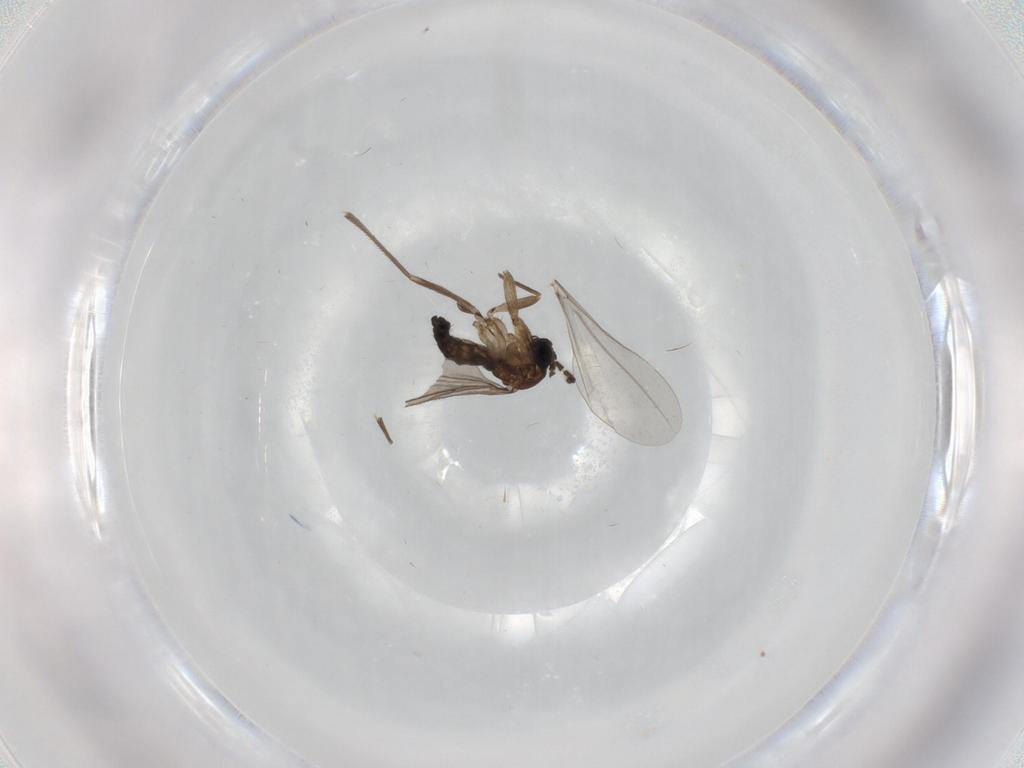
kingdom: Animalia
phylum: Arthropoda
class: Insecta
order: Diptera
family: Sciaridae
